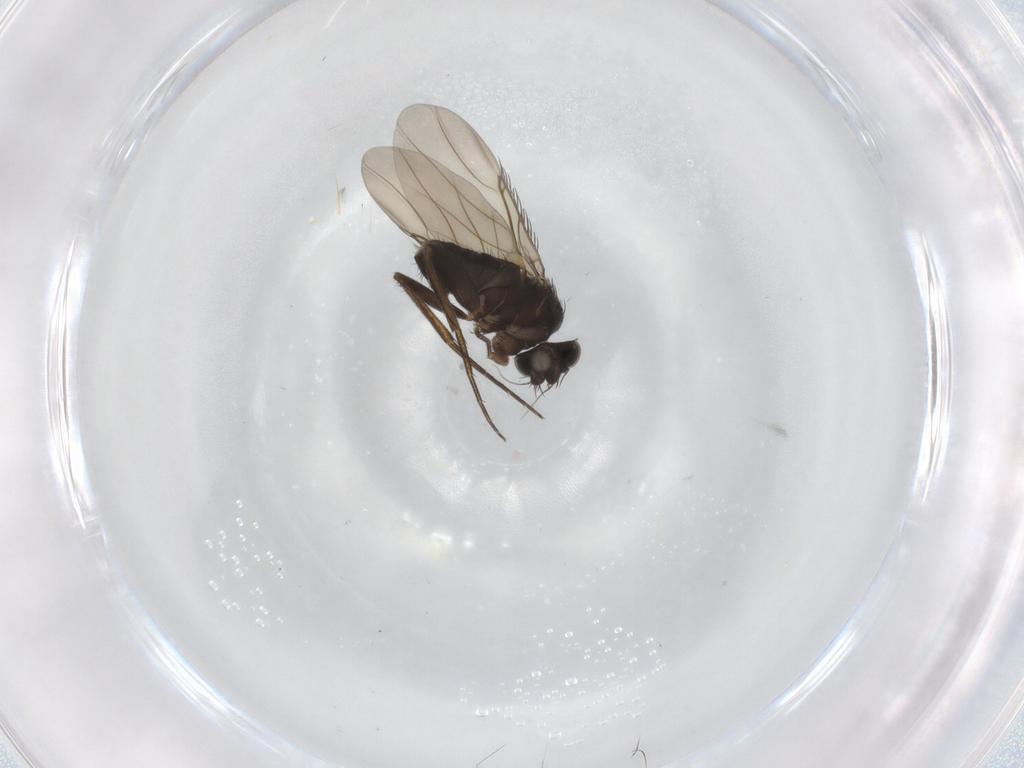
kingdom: Animalia
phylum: Arthropoda
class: Insecta
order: Diptera
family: Phoridae
